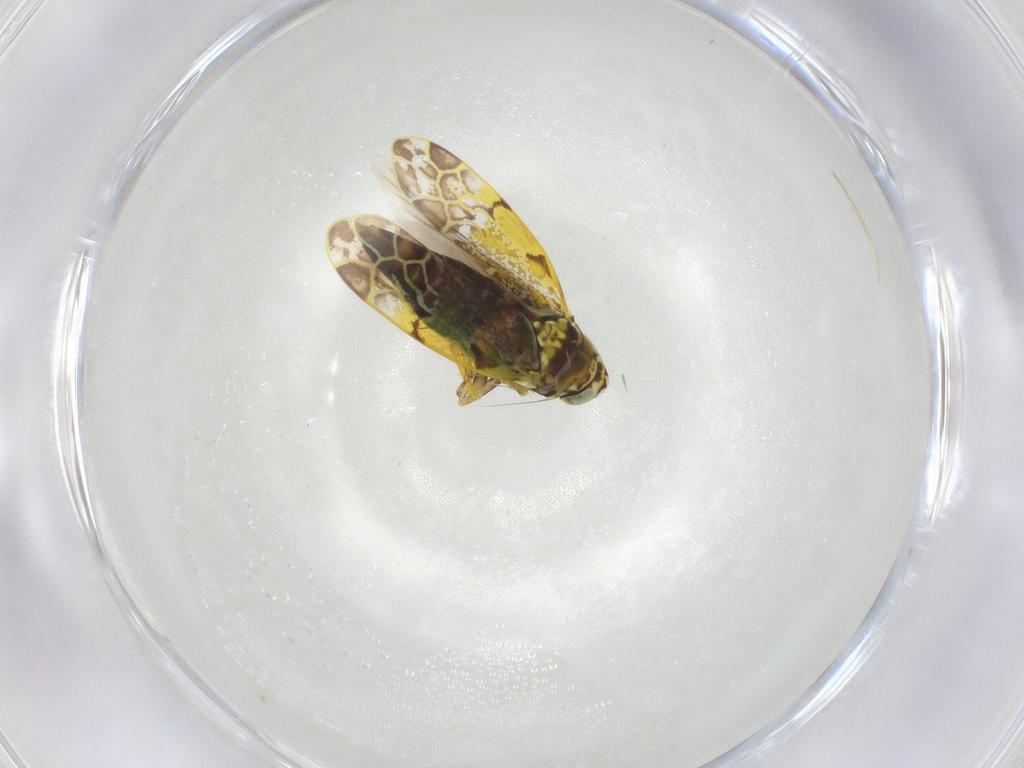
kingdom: Animalia
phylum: Arthropoda
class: Insecta
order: Hemiptera
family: Cicadellidae
